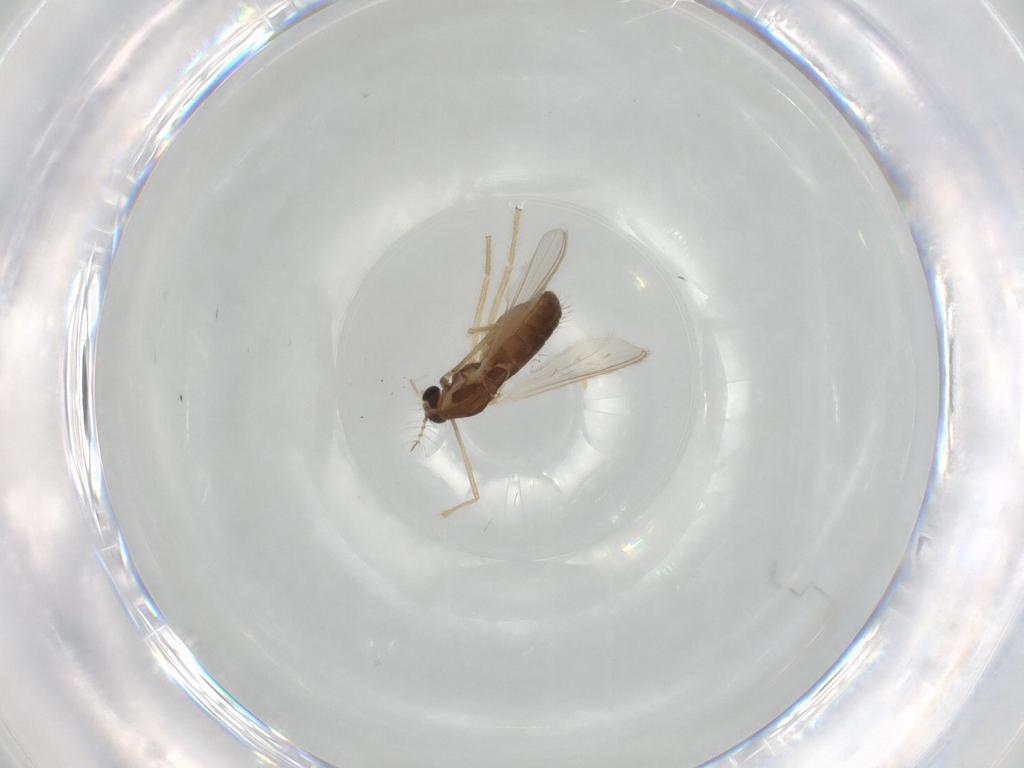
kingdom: Animalia
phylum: Arthropoda
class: Insecta
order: Diptera
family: Chironomidae
